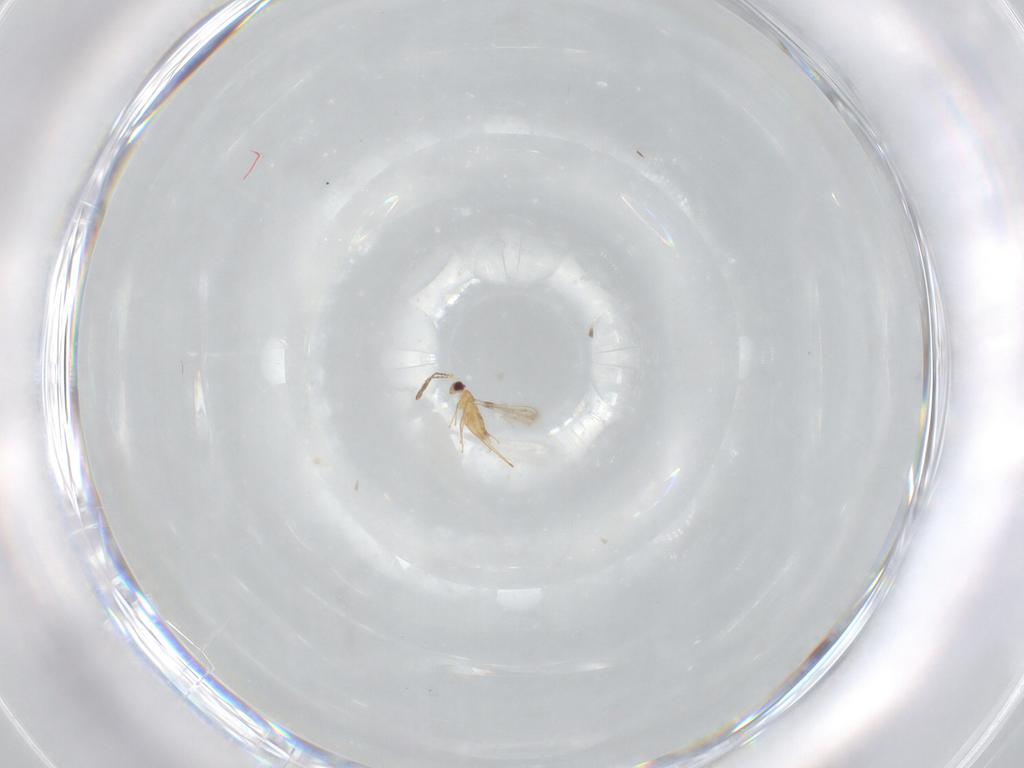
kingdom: Animalia
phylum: Arthropoda
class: Insecta
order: Hymenoptera
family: Mymaridae
